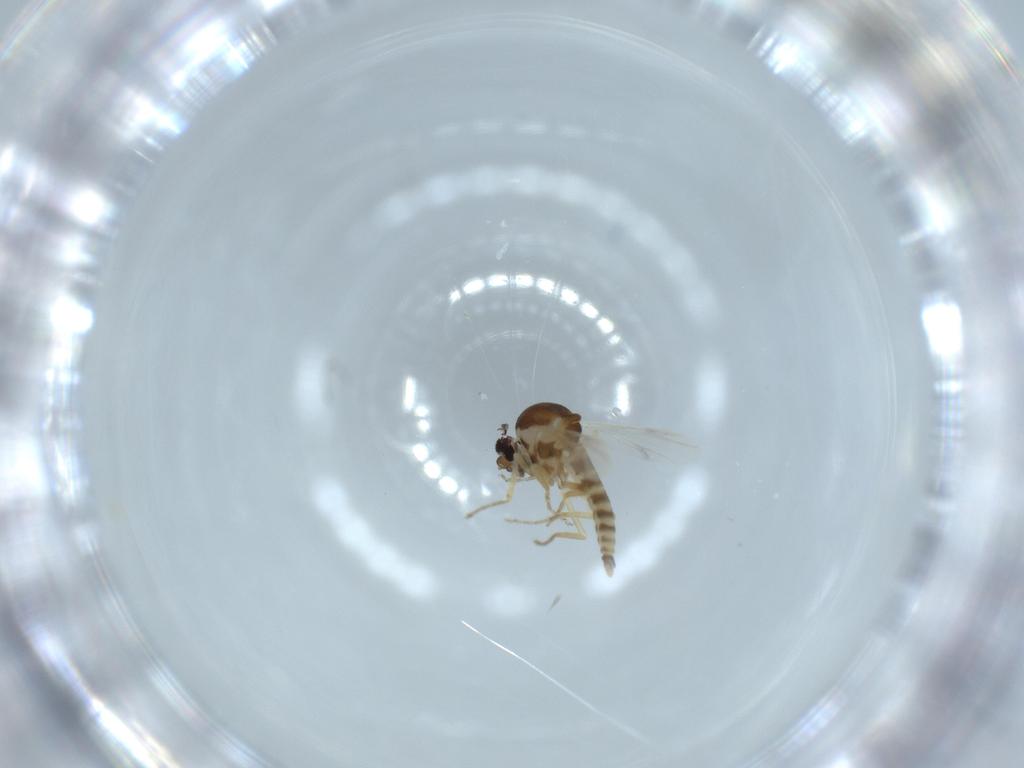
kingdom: Animalia
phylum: Arthropoda
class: Insecta
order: Diptera
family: Ceratopogonidae
